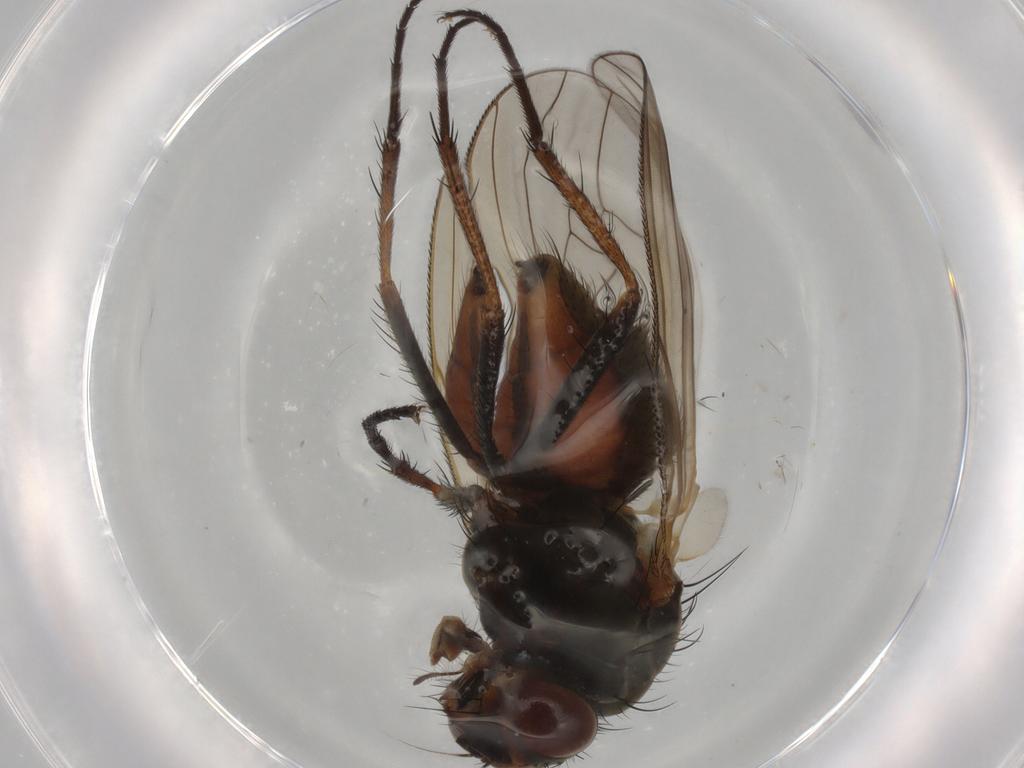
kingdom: Animalia
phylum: Arthropoda
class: Insecta
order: Diptera
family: Anthomyiidae
